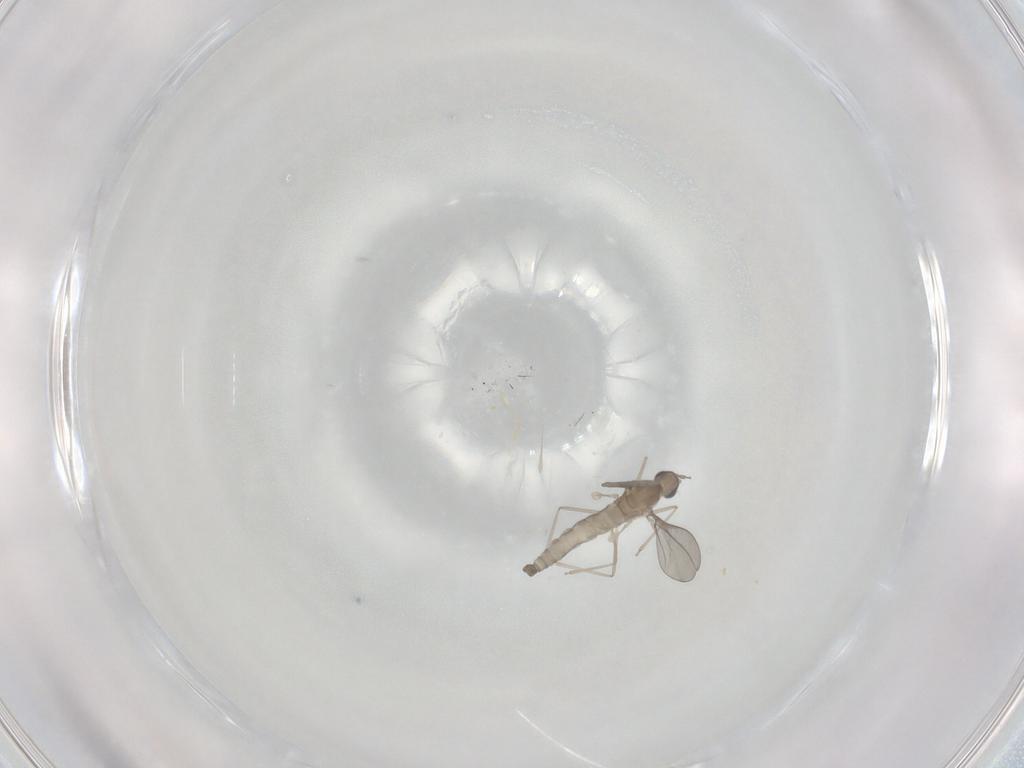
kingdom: Animalia
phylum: Arthropoda
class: Insecta
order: Diptera
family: Cecidomyiidae
